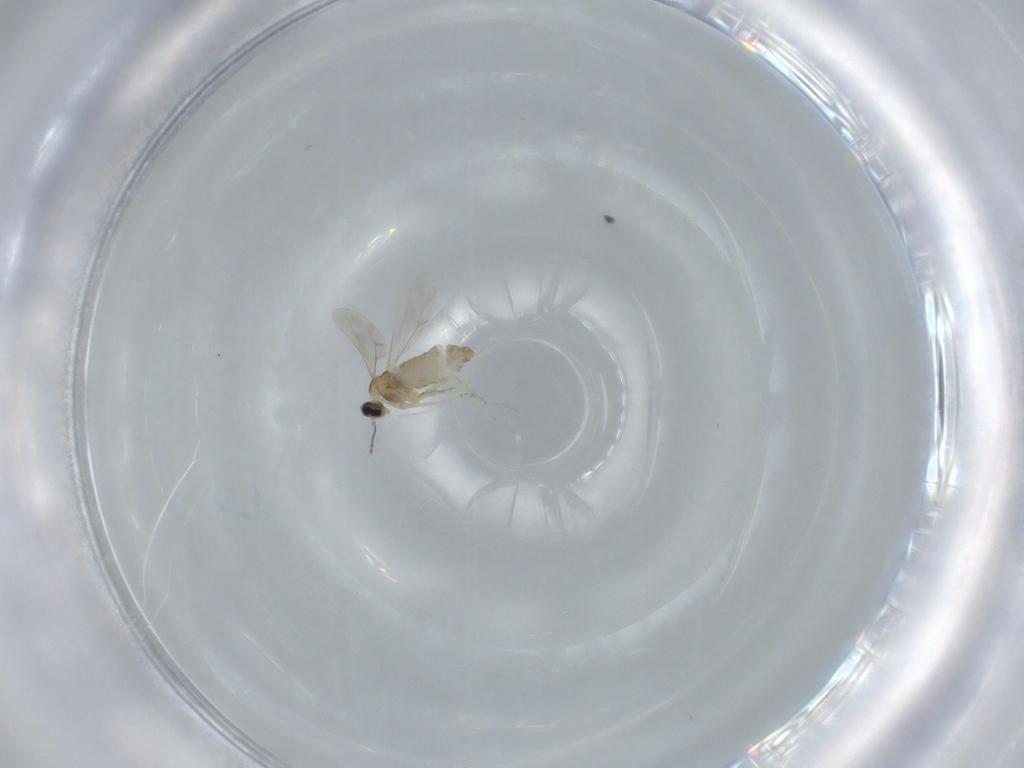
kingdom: Animalia
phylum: Arthropoda
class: Insecta
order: Diptera
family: Cecidomyiidae
